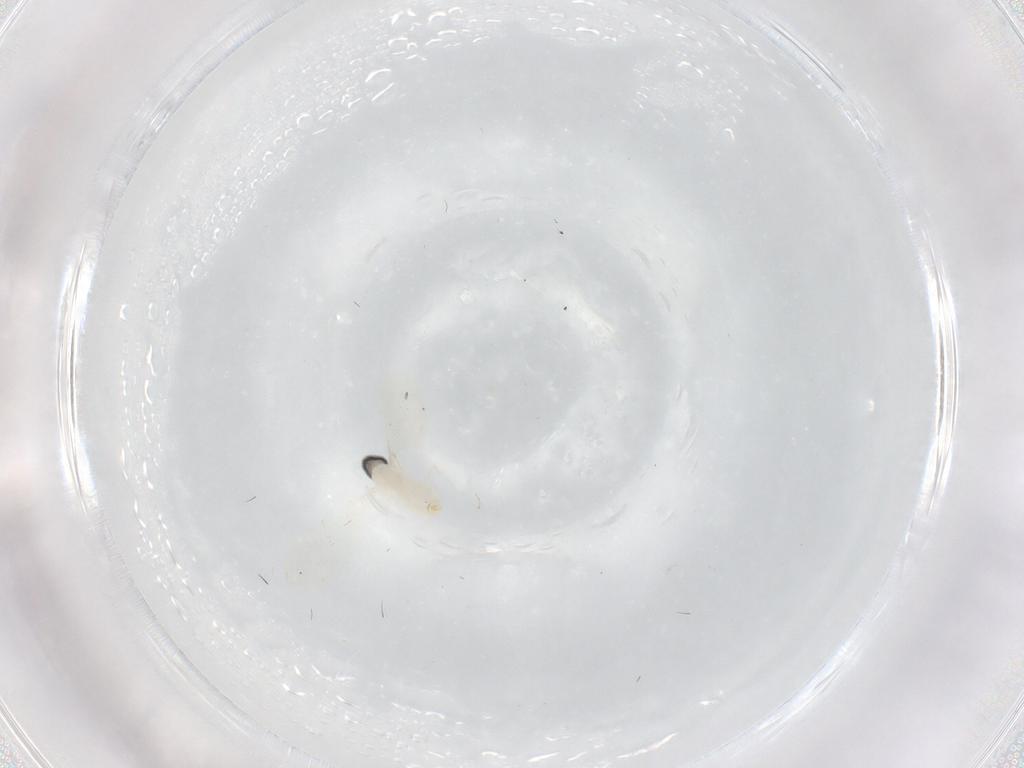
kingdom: Animalia
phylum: Arthropoda
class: Insecta
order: Diptera
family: Cecidomyiidae
